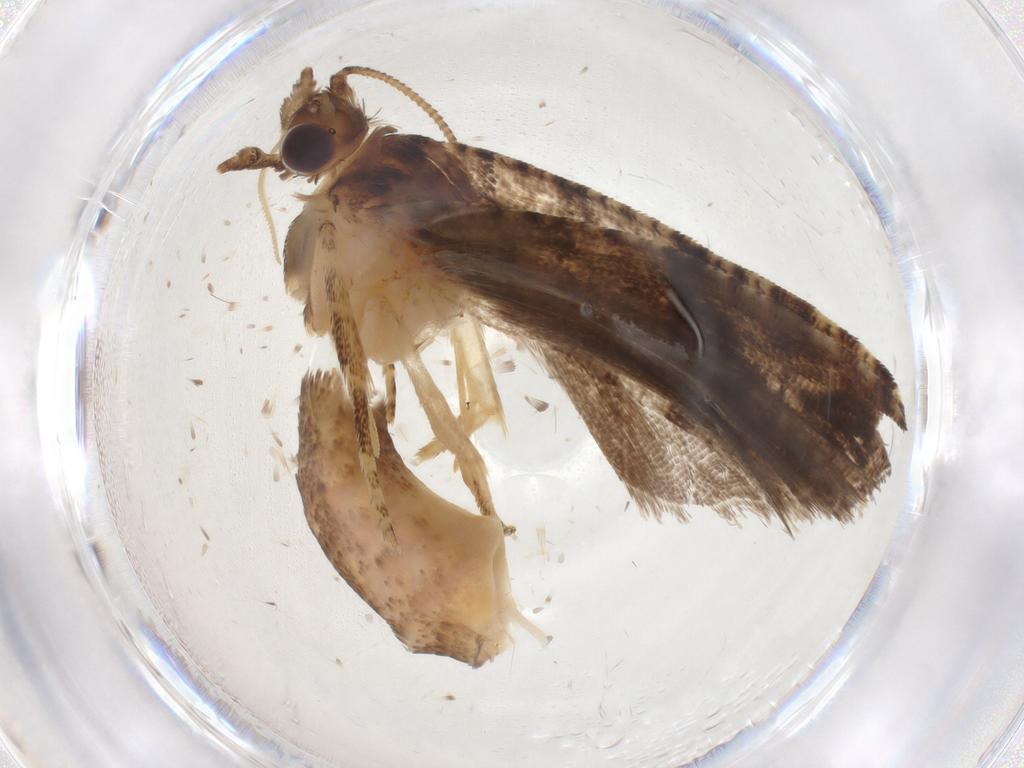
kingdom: Animalia
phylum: Arthropoda
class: Insecta
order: Lepidoptera
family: Tortricidae
